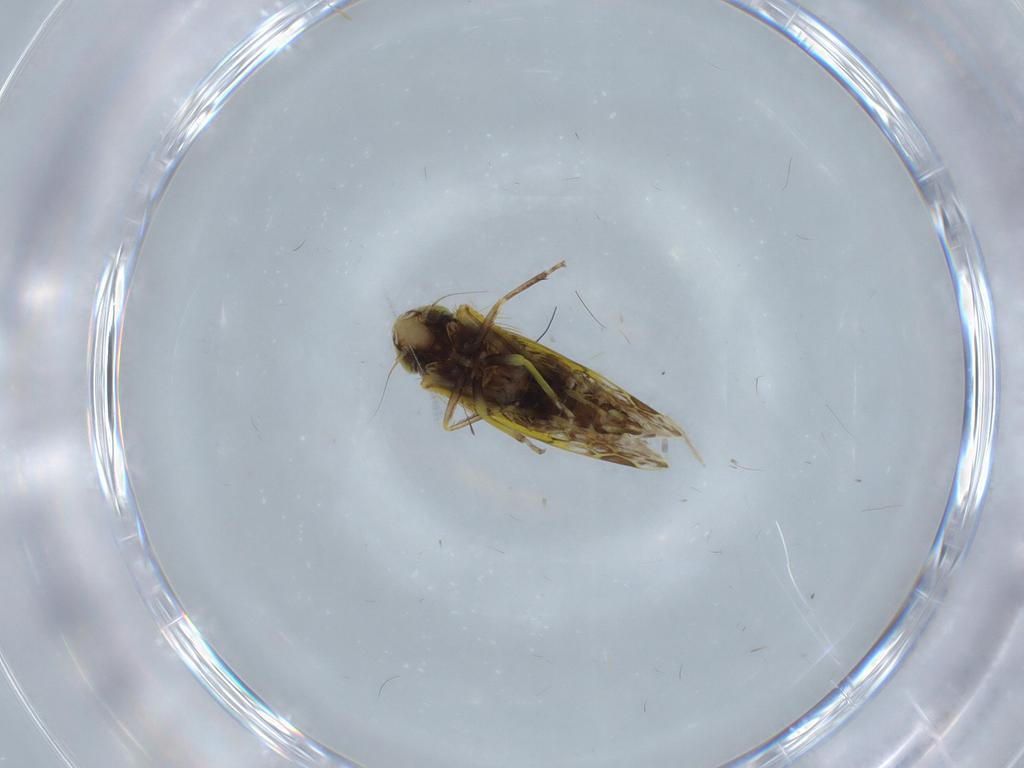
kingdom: Animalia
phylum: Arthropoda
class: Insecta
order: Hemiptera
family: Cicadellidae
